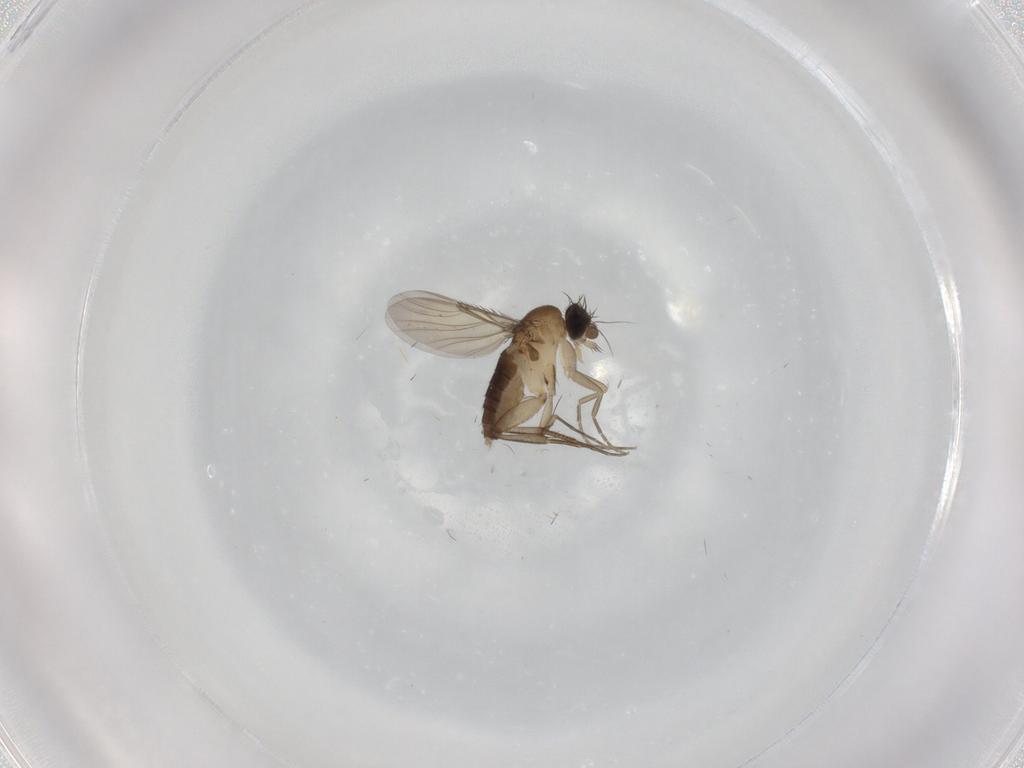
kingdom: Animalia
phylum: Arthropoda
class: Insecta
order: Diptera
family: Phoridae
